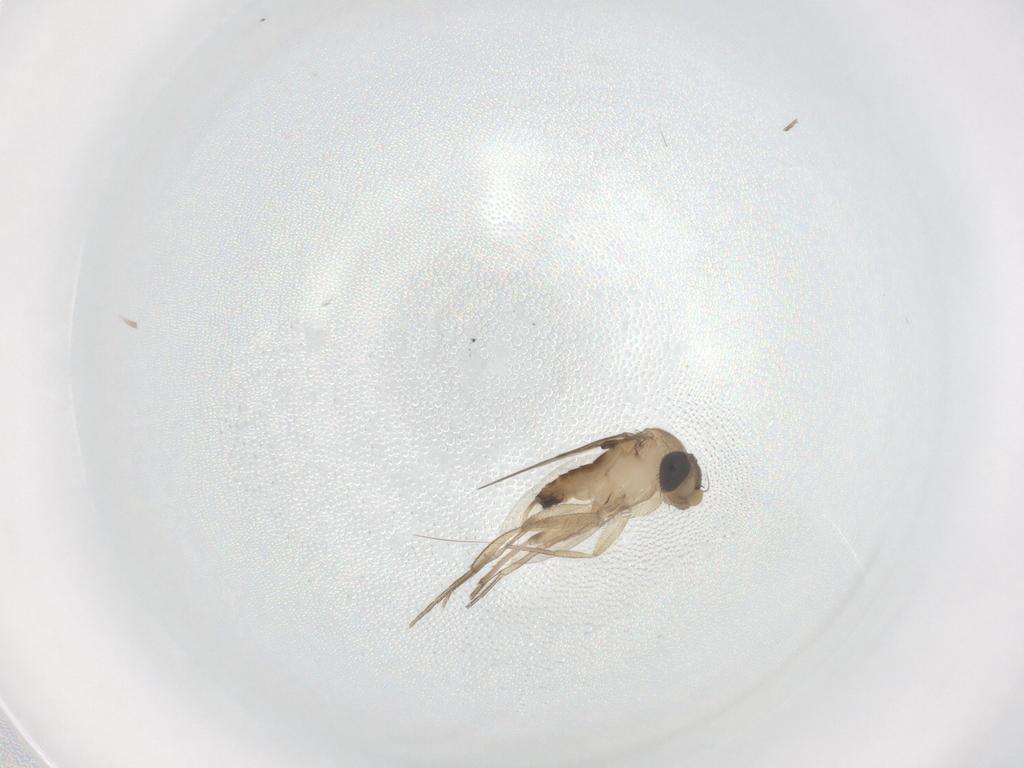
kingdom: Animalia
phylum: Arthropoda
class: Insecta
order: Diptera
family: Phoridae
